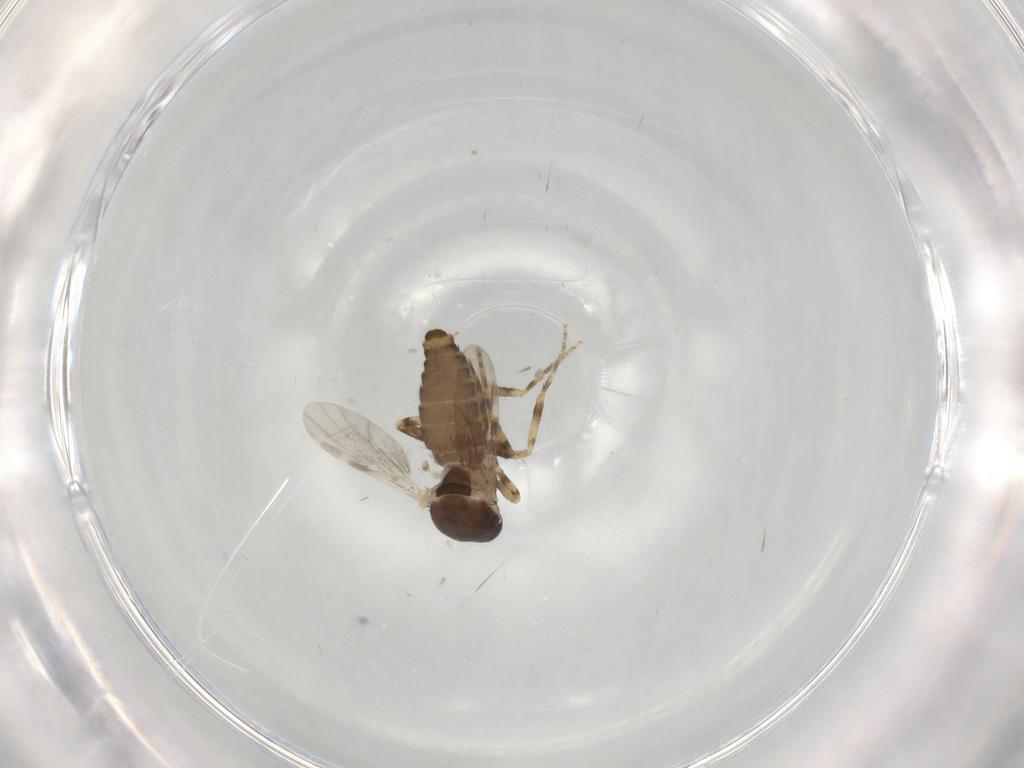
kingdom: Animalia
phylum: Arthropoda
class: Insecta
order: Diptera
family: Ceratopogonidae
